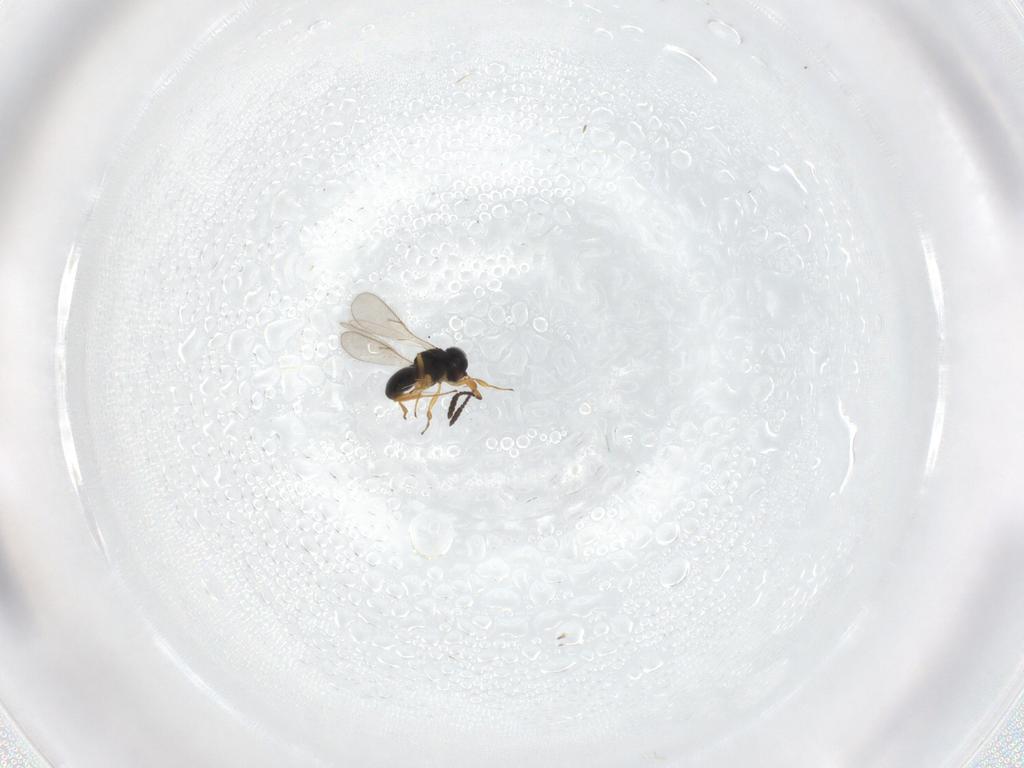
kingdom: Animalia
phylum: Arthropoda
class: Insecta
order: Hymenoptera
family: Scelionidae
